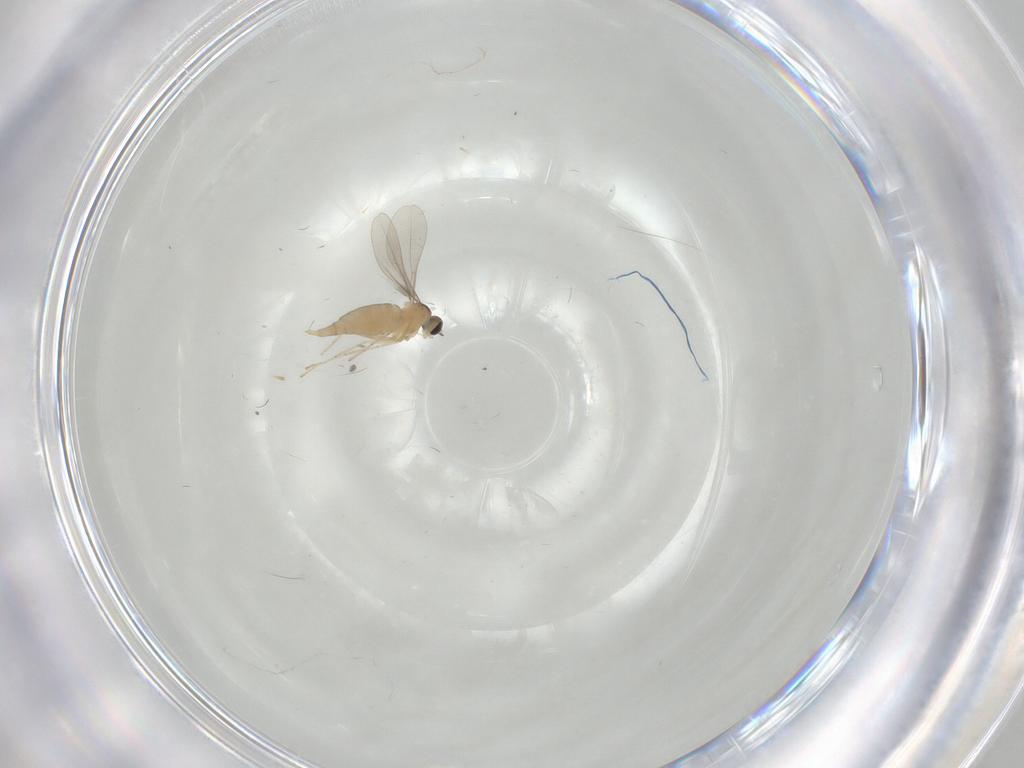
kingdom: Animalia
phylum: Arthropoda
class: Insecta
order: Diptera
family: Cecidomyiidae
